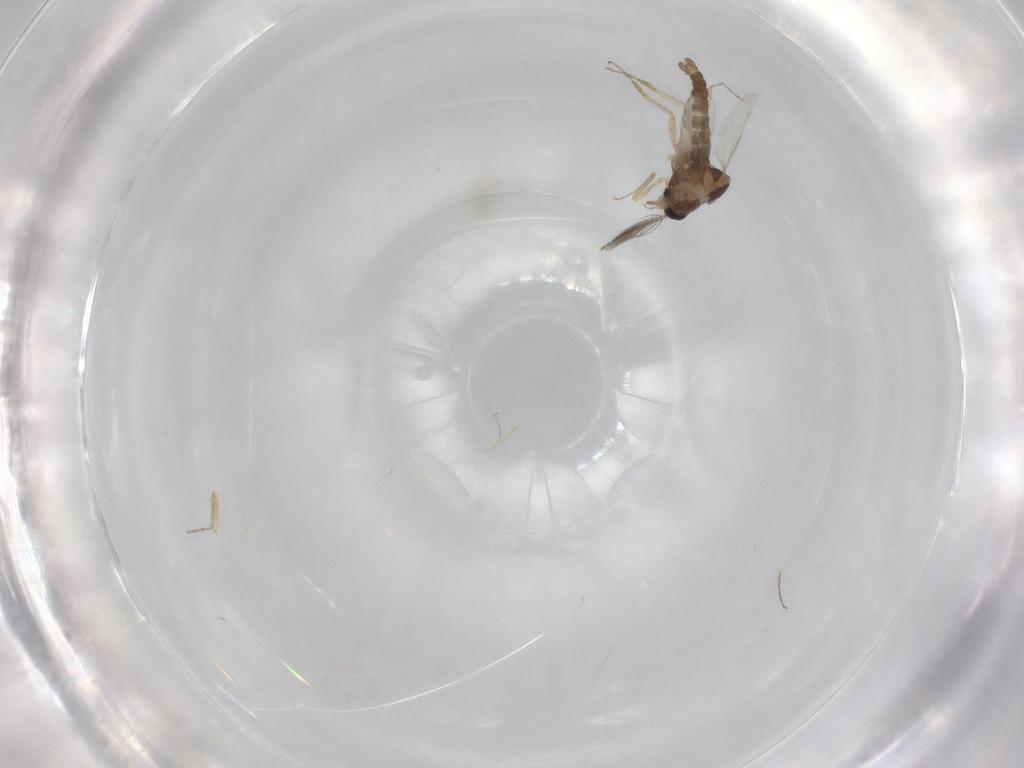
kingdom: Animalia
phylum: Arthropoda
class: Insecta
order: Diptera
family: Ceratopogonidae
